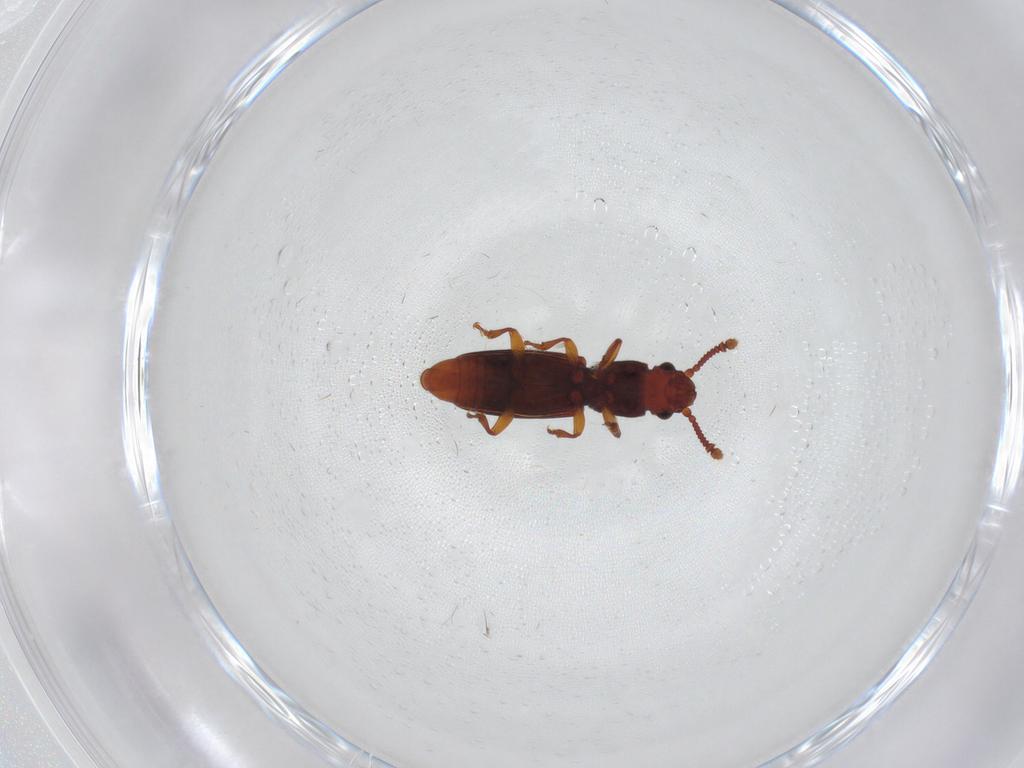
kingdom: Animalia
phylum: Arthropoda
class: Insecta
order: Coleoptera
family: Monotomidae
